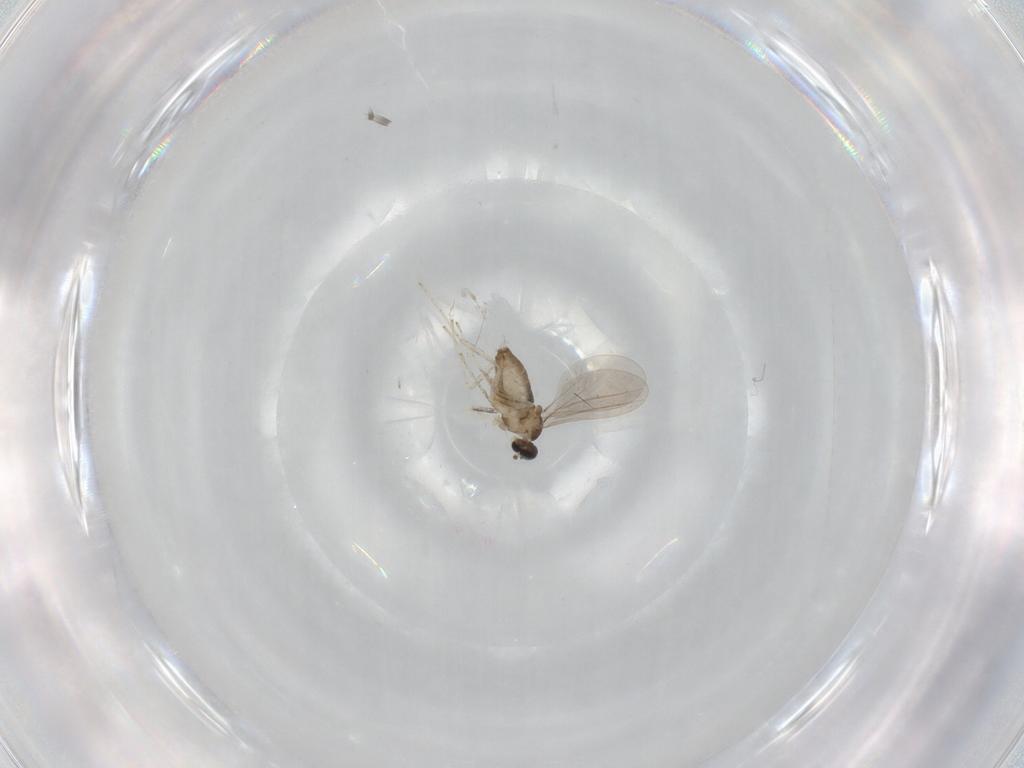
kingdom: Animalia
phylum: Arthropoda
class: Insecta
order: Diptera
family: Cecidomyiidae
